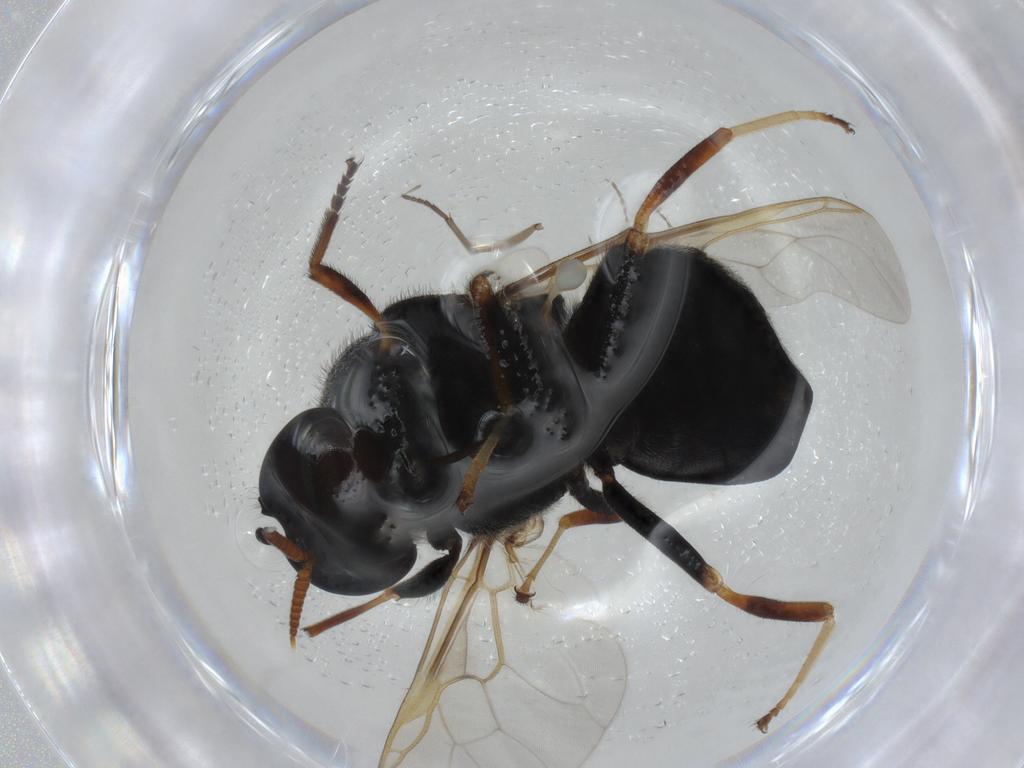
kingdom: Animalia
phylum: Arthropoda
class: Insecta
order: Diptera
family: Stratiomyidae
